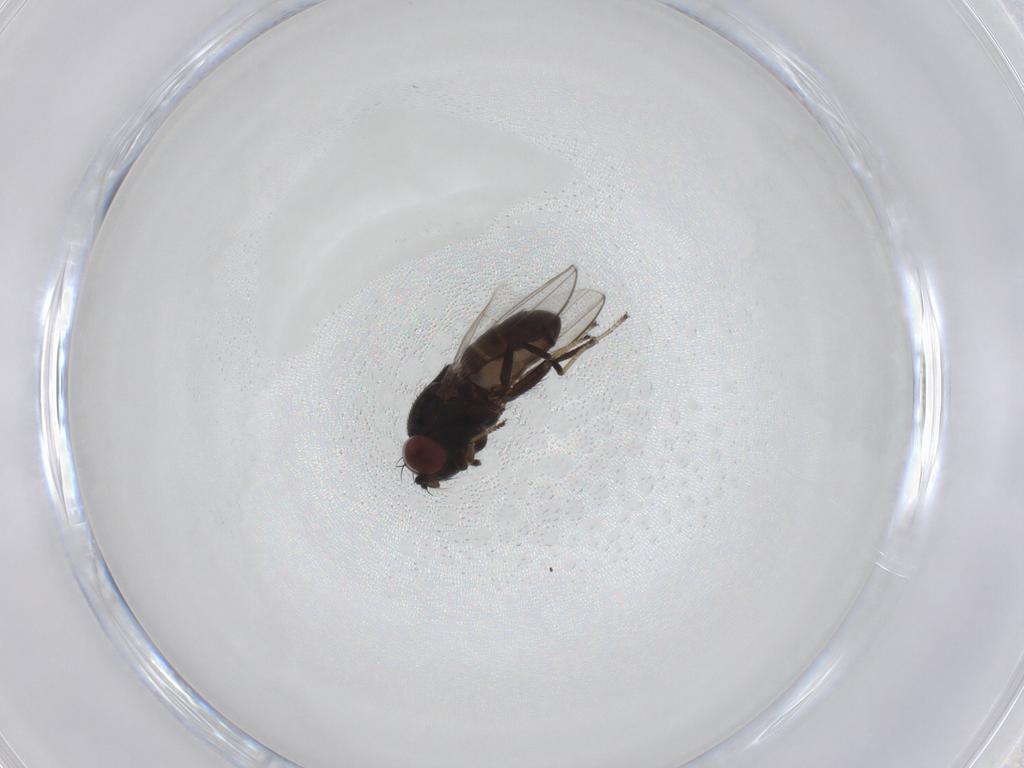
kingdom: Animalia
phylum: Arthropoda
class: Insecta
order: Diptera
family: Ephydridae
